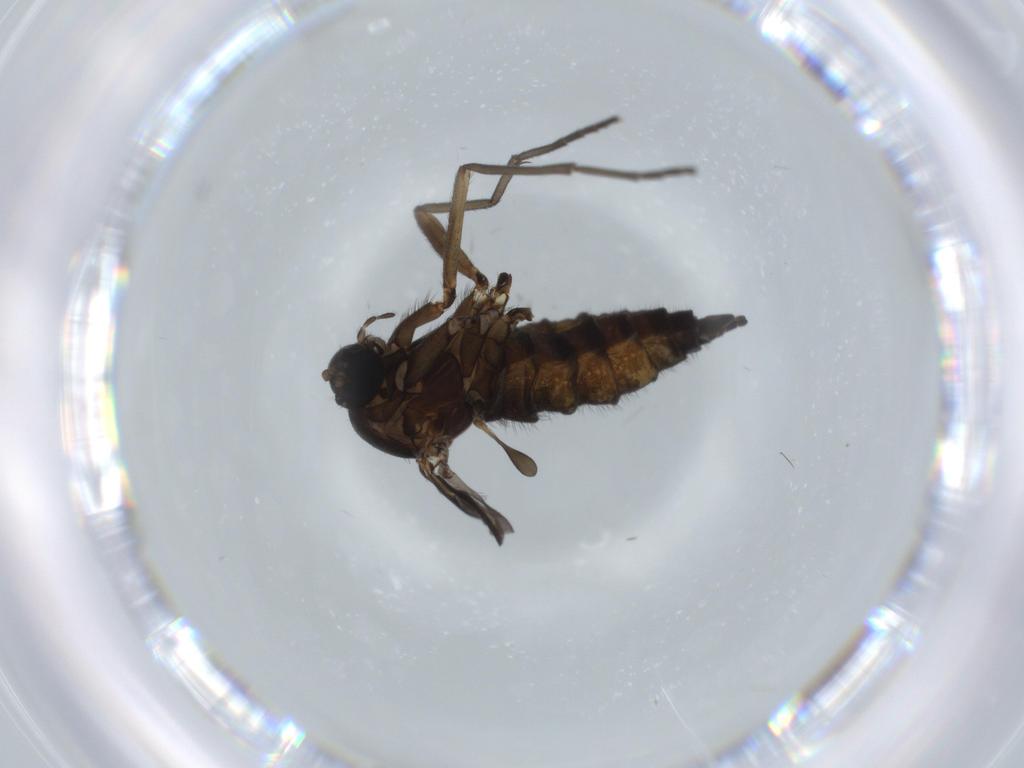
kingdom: Animalia
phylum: Arthropoda
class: Insecta
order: Diptera
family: Sciaridae
